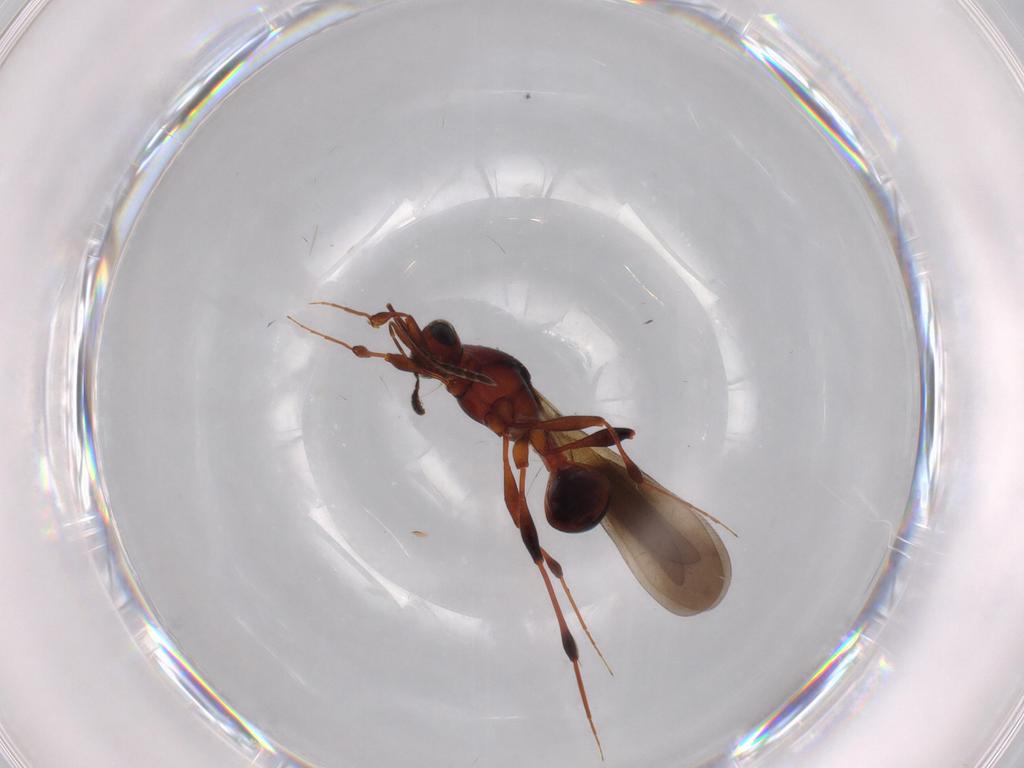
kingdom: Animalia
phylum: Arthropoda
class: Insecta
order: Hymenoptera
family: Platygastridae
